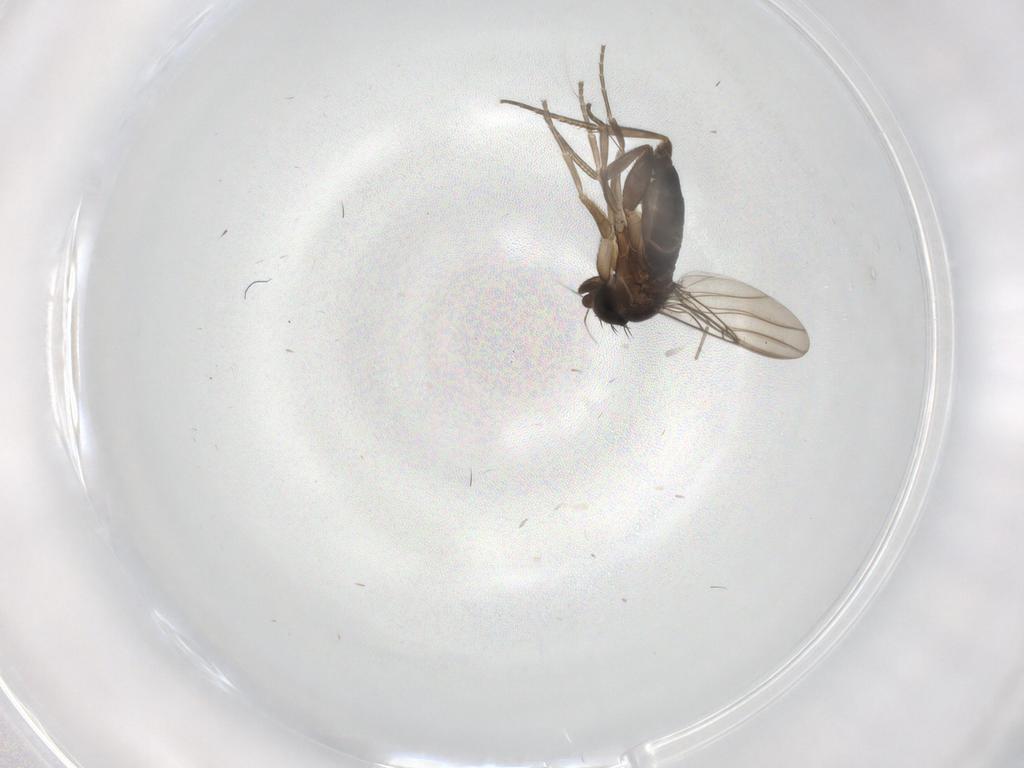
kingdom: Animalia
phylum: Arthropoda
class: Insecta
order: Diptera
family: Phoridae
